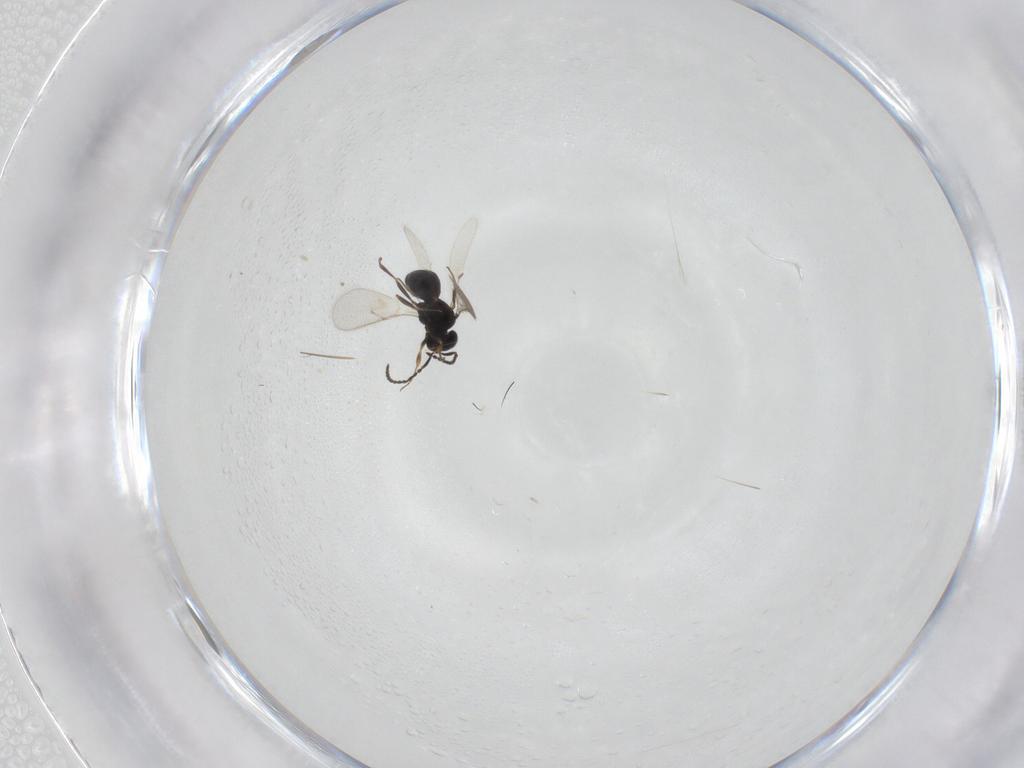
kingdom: Animalia
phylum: Arthropoda
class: Insecta
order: Hymenoptera
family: Scelionidae
